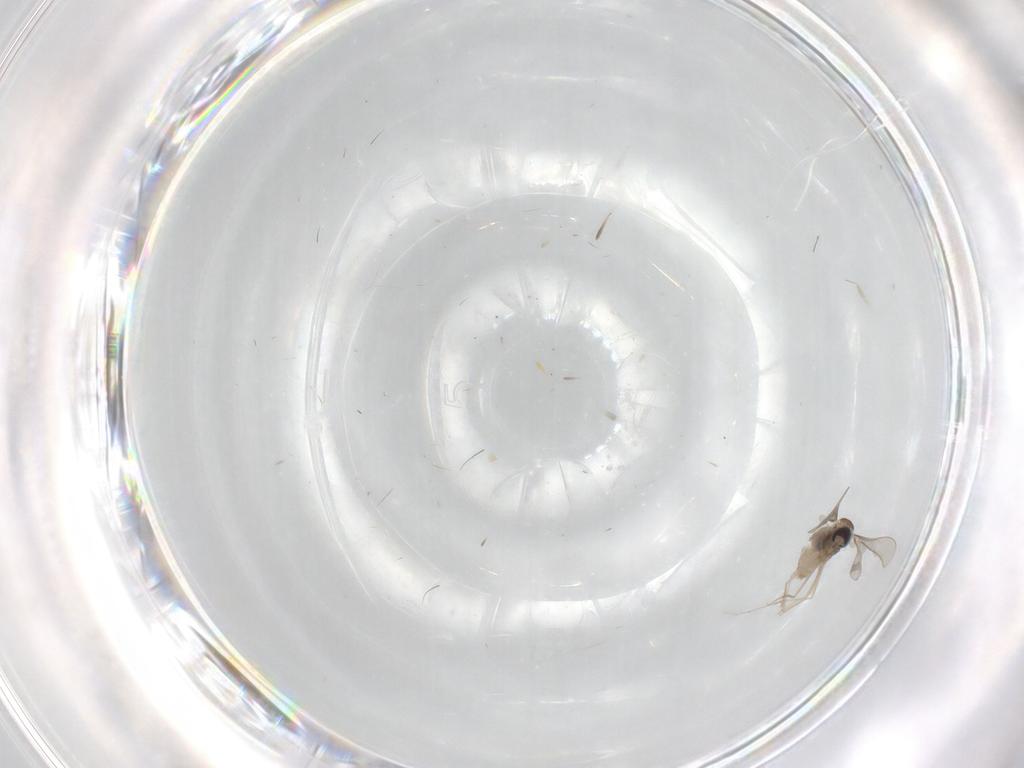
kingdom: Animalia
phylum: Arthropoda
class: Insecta
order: Diptera
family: Cecidomyiidae
